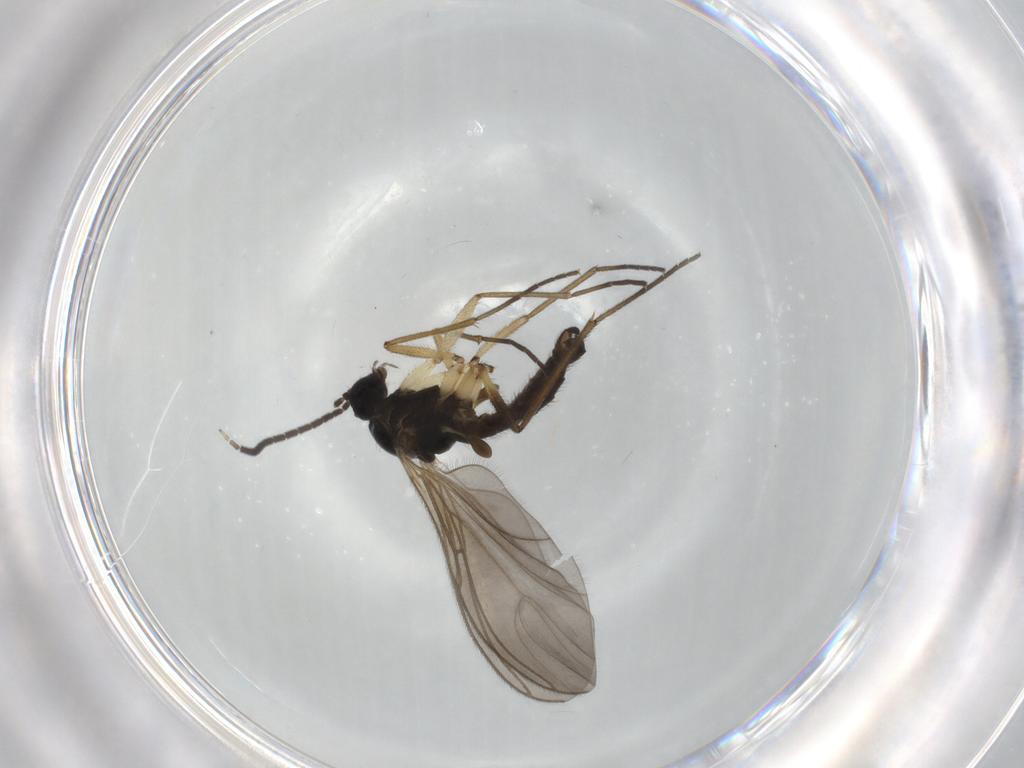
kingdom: Animalia
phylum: Arthropoda
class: Insecta
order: Diptera
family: Sciaridae
